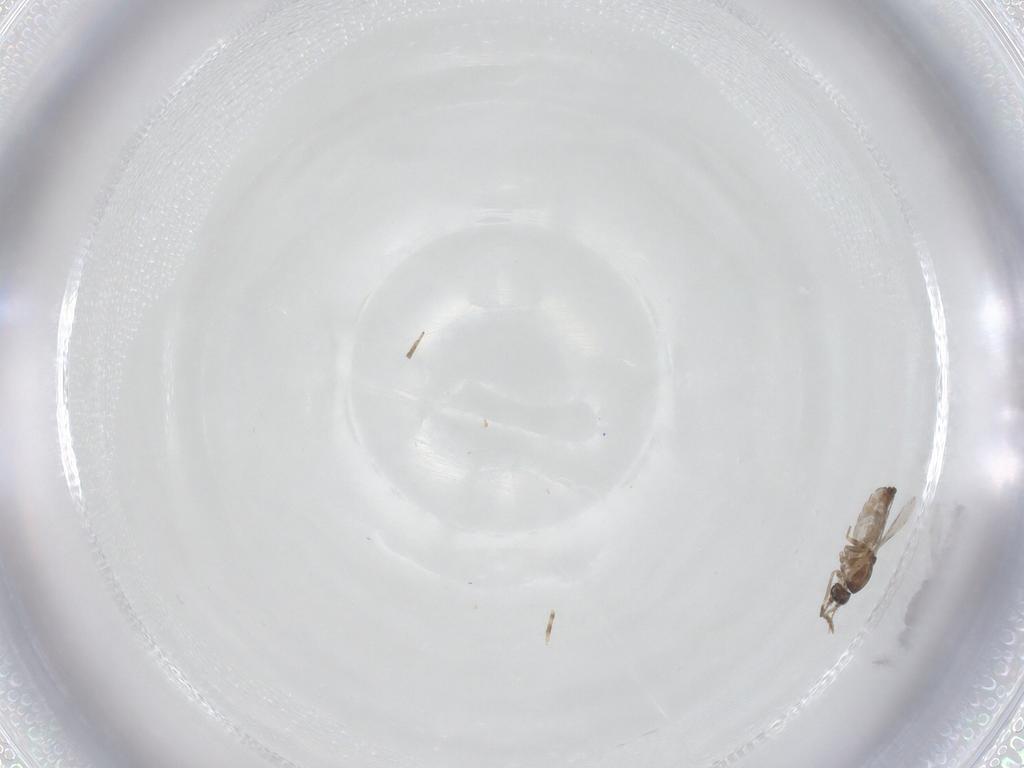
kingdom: Animalia
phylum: Arthropoda
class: Insecta
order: Diptera
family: Ceratopogonidae
